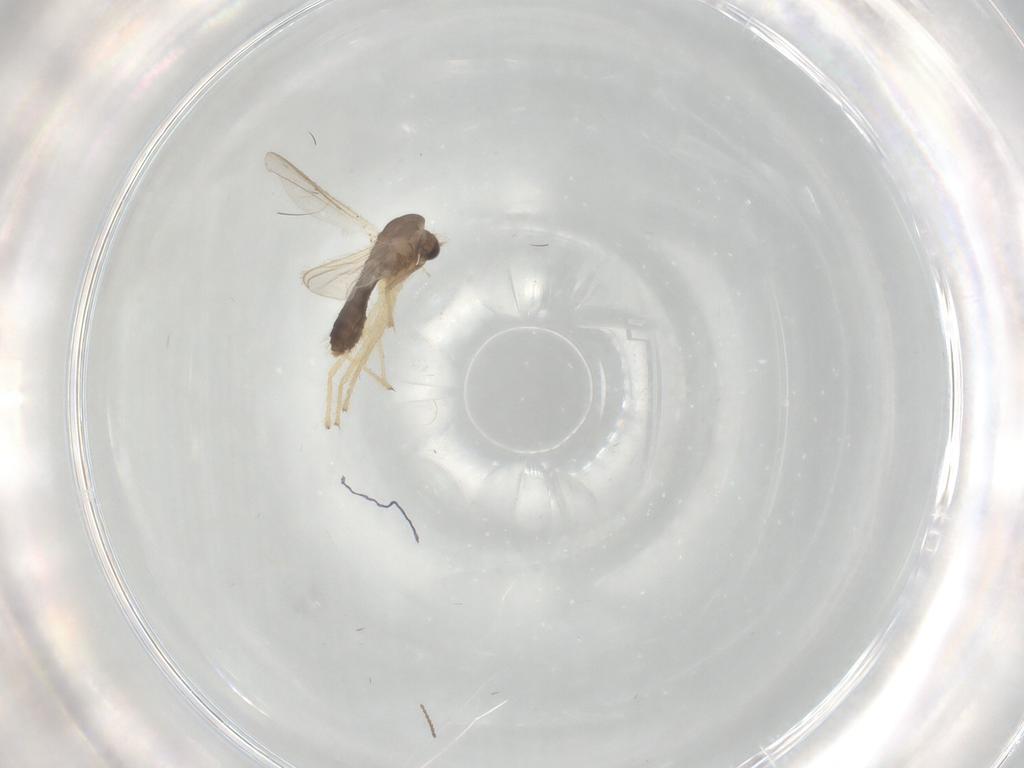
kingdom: Animalia
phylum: Arthropoda
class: Insecta
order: Diptera
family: Chironomidae
